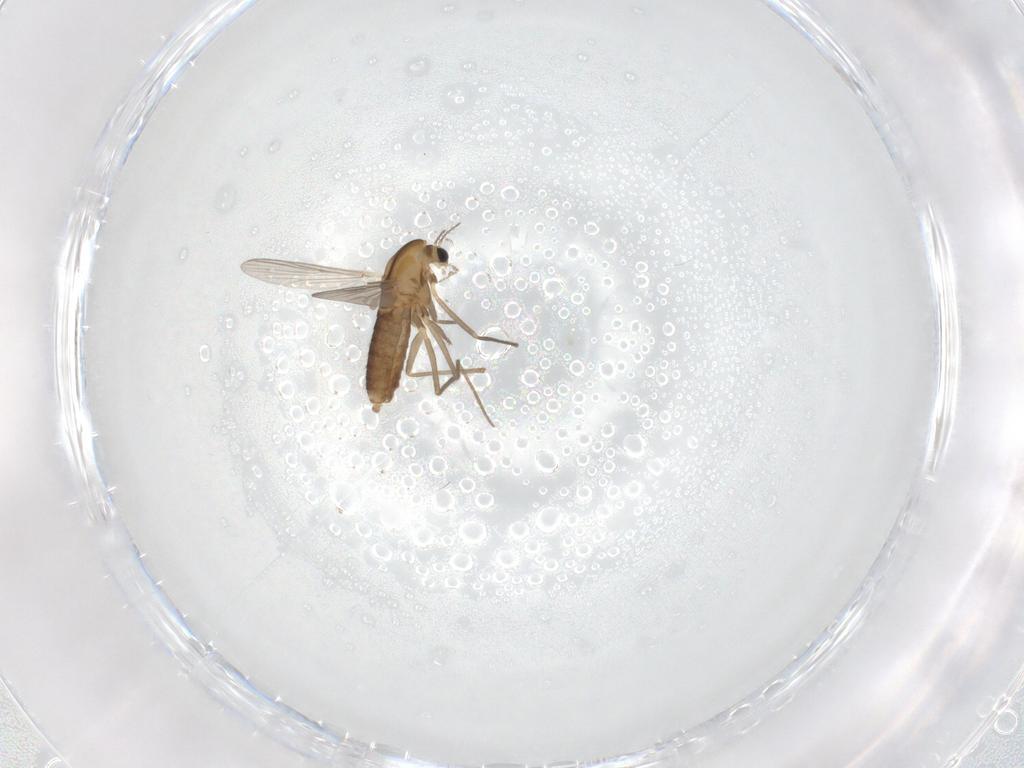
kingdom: Animalia
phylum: Arthropoda
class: Insecta
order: Diptera
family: Chironomidae
